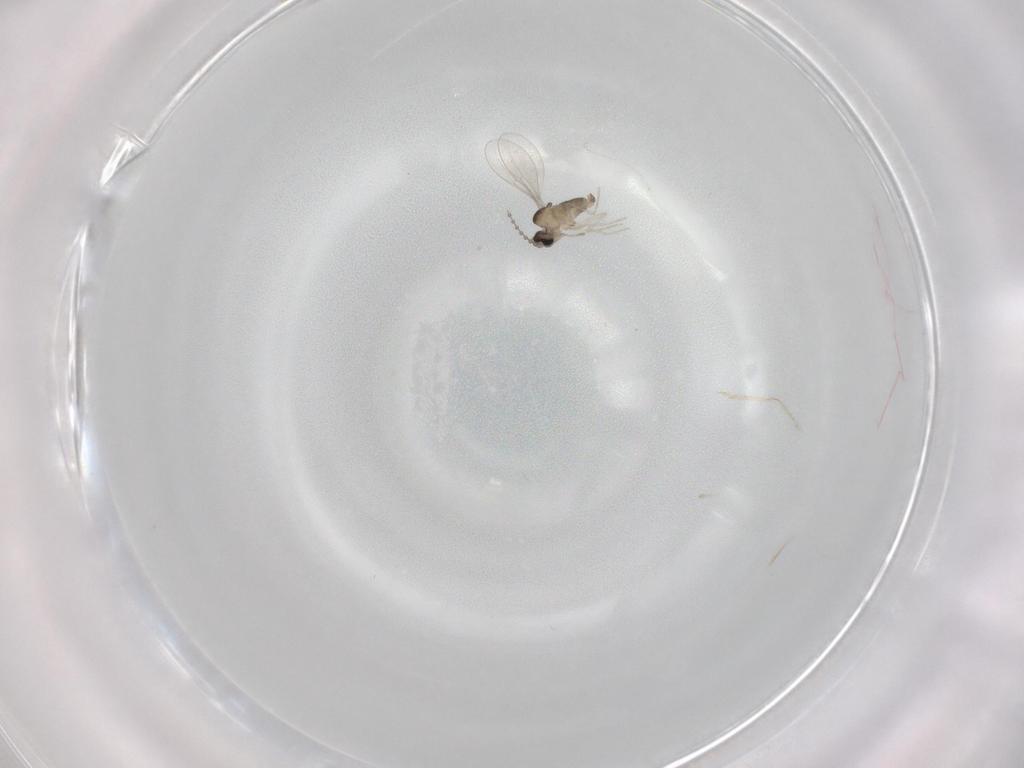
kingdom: Animalia
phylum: Arthropoda
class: Insecta
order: Diptera
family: Cecidomyiidae
